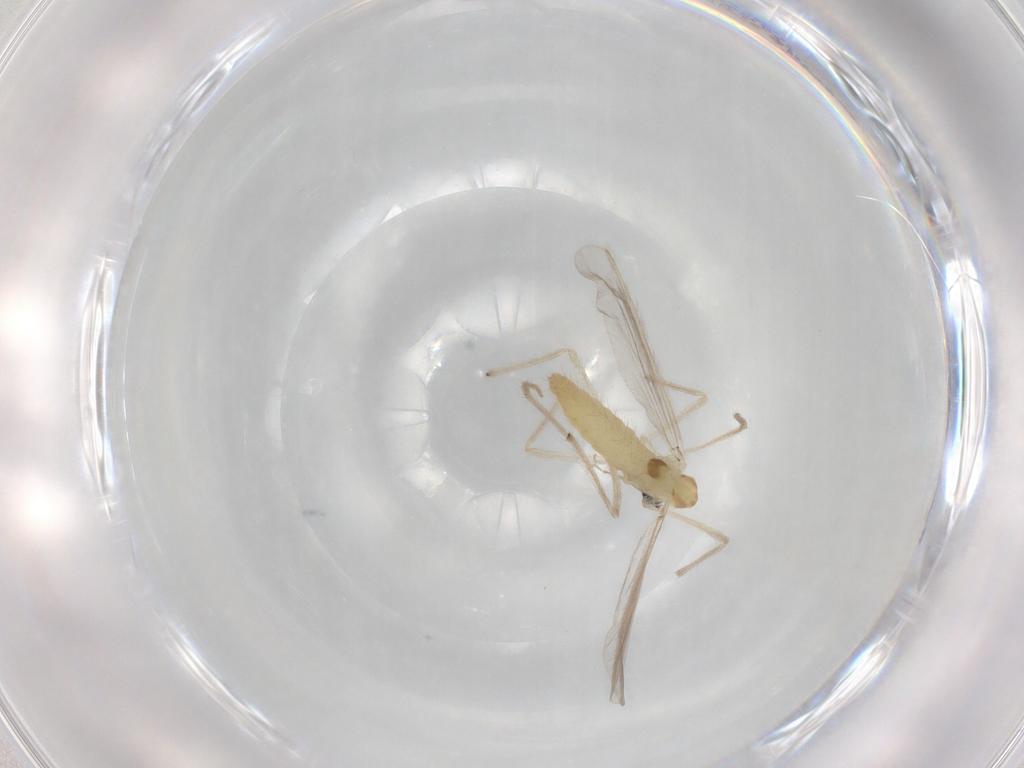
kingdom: Animalia
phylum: Arthropoda
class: Insecta
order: Diptera
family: Chironomidae
